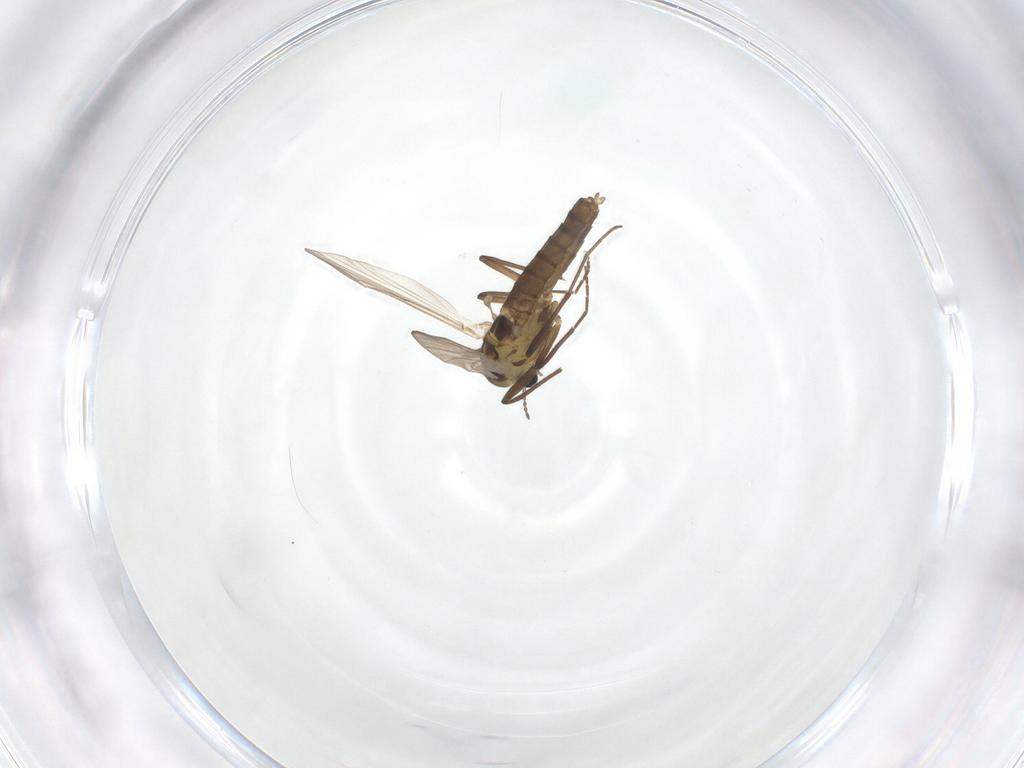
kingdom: Animalia
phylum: Arthropoda
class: Insecta
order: Diptera
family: Chironomidae
